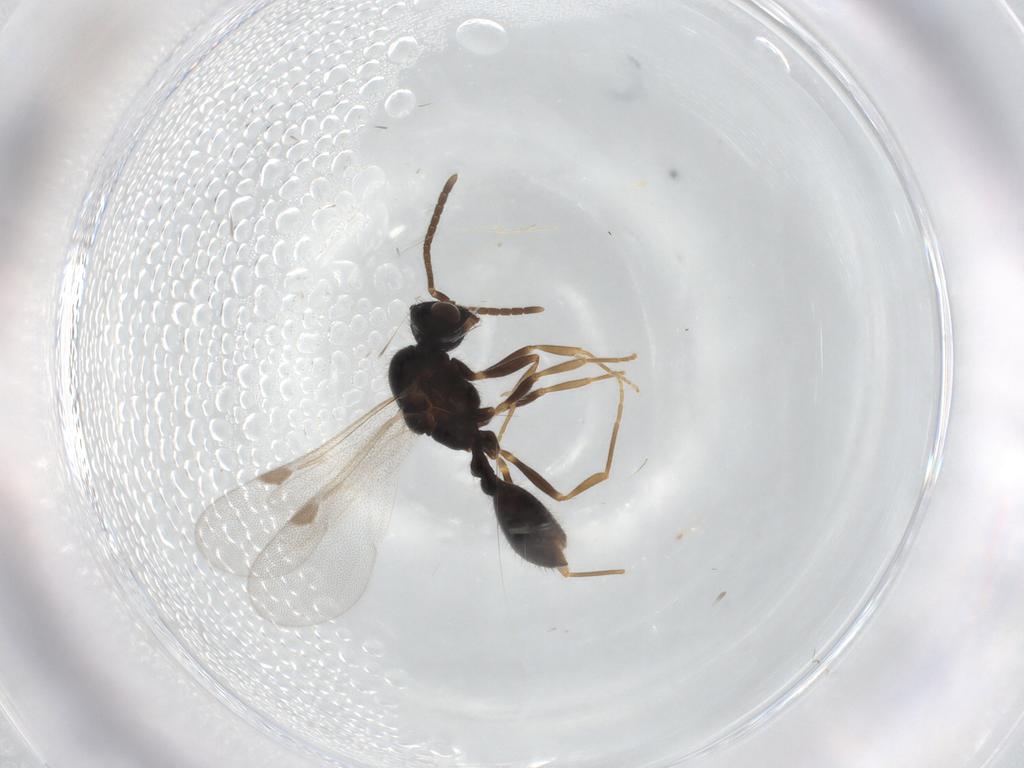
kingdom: Animalia
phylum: Arthropoda
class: Insecta
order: Hymenoptera
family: Formicidae
